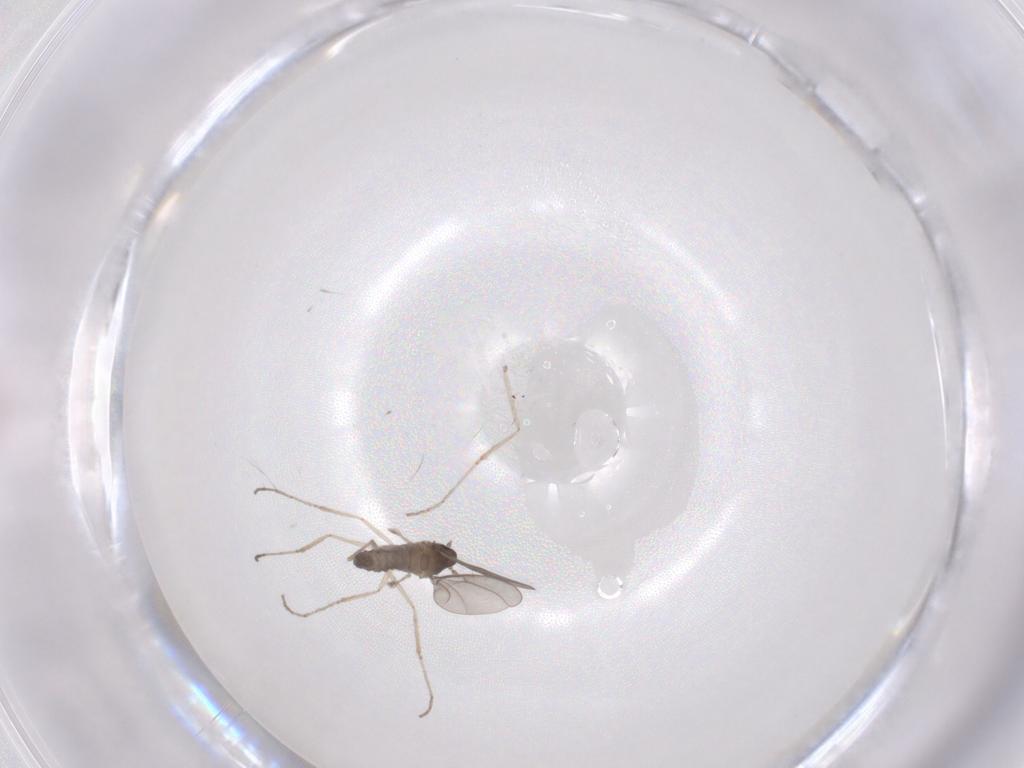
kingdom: Animalia
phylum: Arthropoda
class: Insecta
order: Diptera
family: Cecidomyiidae
